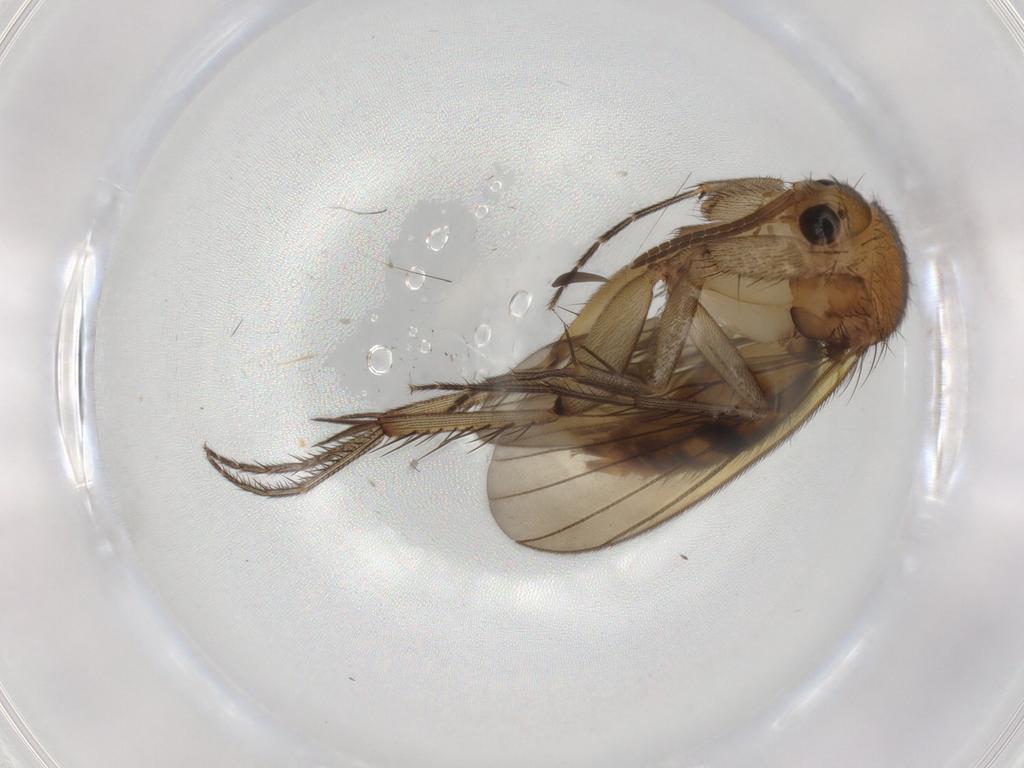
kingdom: Animalia
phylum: Arthropoda
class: Insecta
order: Diptera
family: Mycetophilidae
